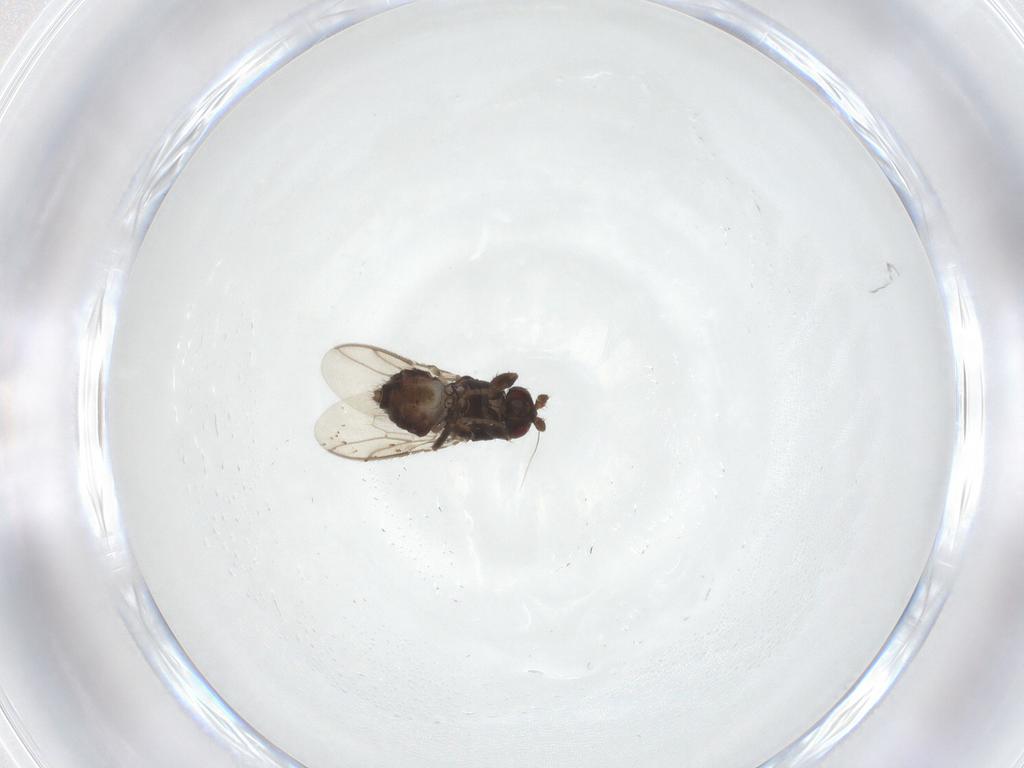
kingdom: Animalia
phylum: Arthropoda
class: Insecta
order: Diptera
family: Sphaeroceridae
